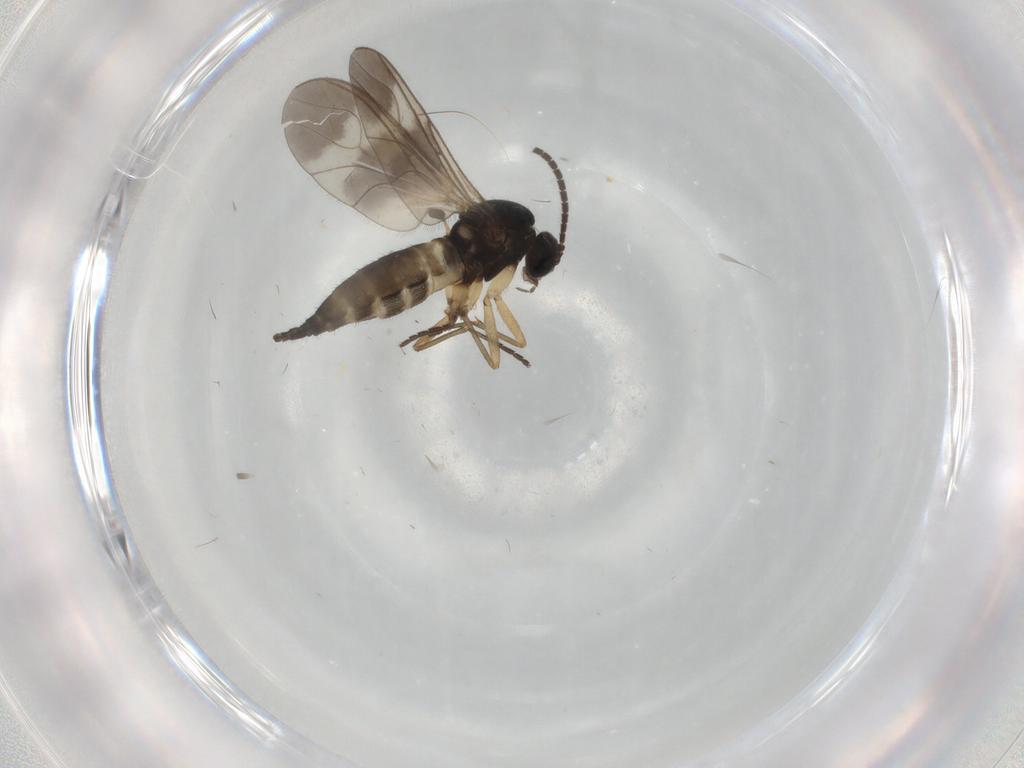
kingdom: Animalia
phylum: Arthropoda
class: Insecta
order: Diptera
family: Sciaridae
